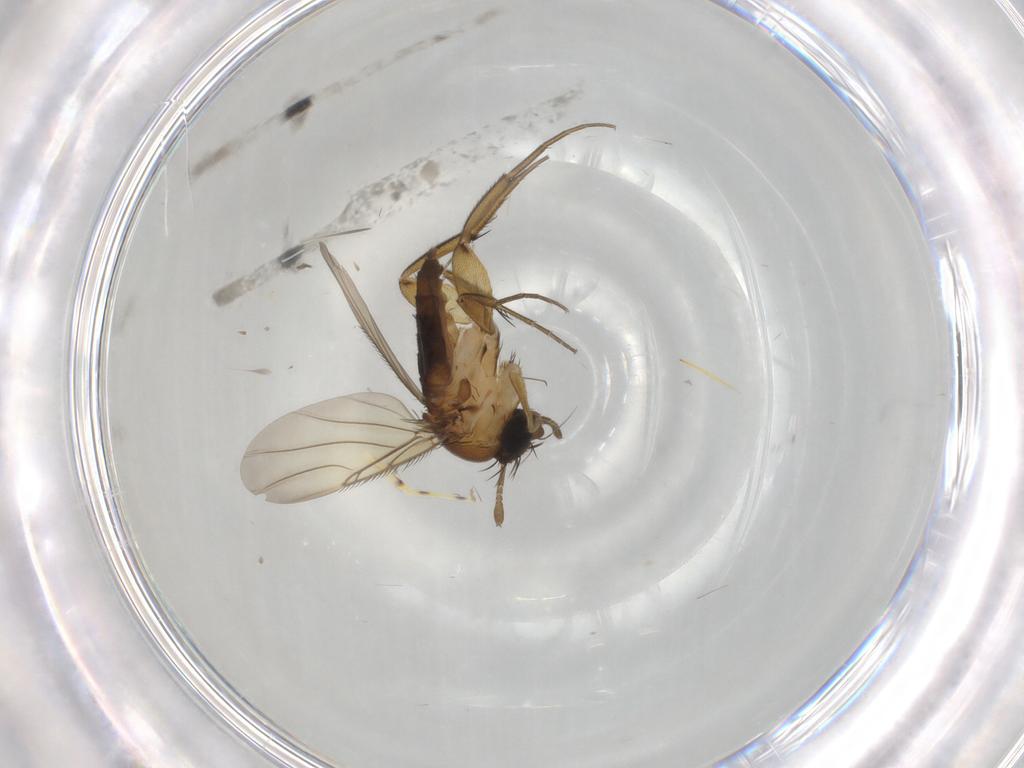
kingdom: Animalia
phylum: Arthropoda
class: Insecta
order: Diptera
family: Phoridae
